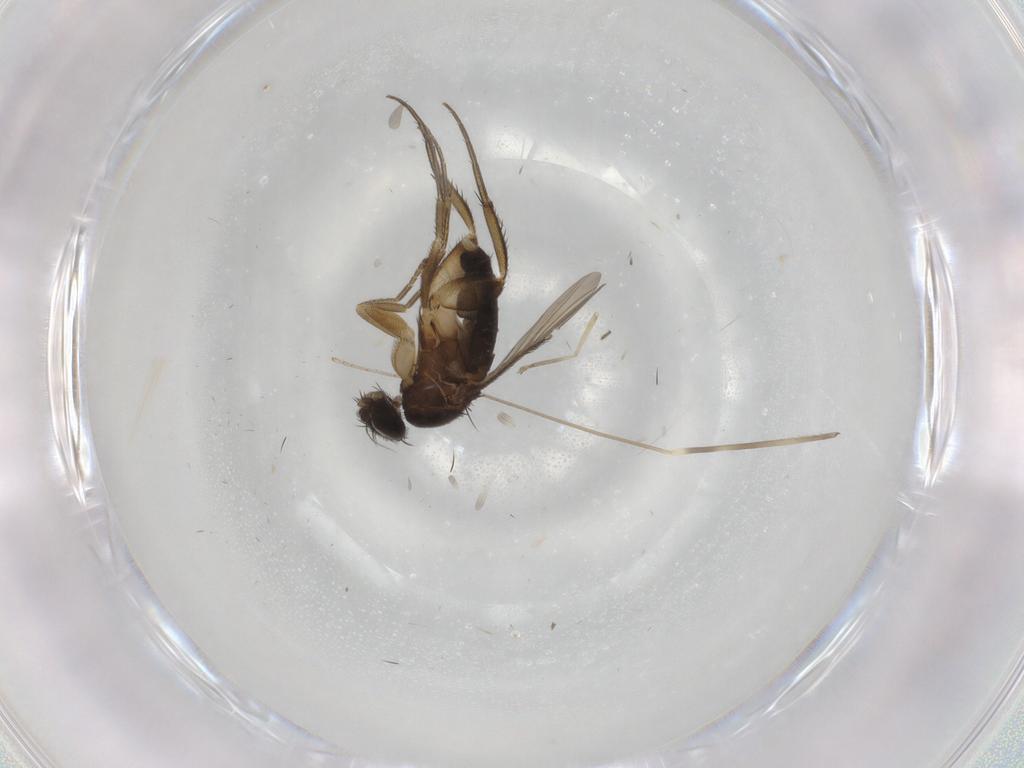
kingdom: Animalia
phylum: Arthropoda
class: Insecta
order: Diptera
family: Phoridae
